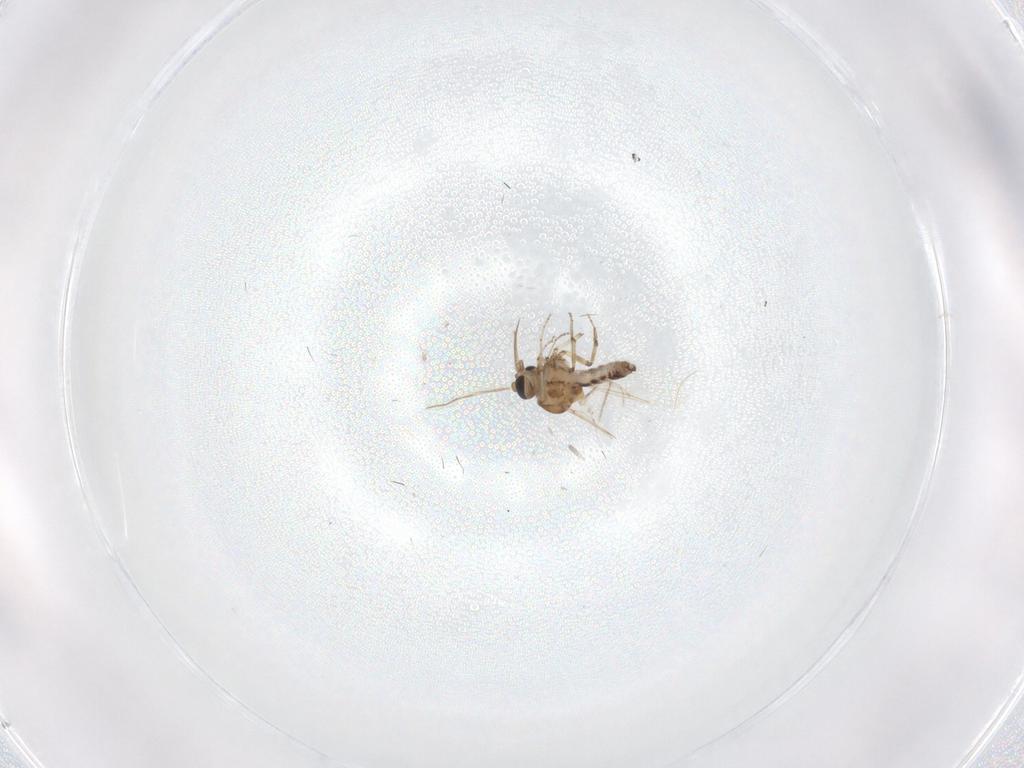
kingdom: Animalia
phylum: Arthropoda
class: Insecta
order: Diptera
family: Ceratopogonidae
